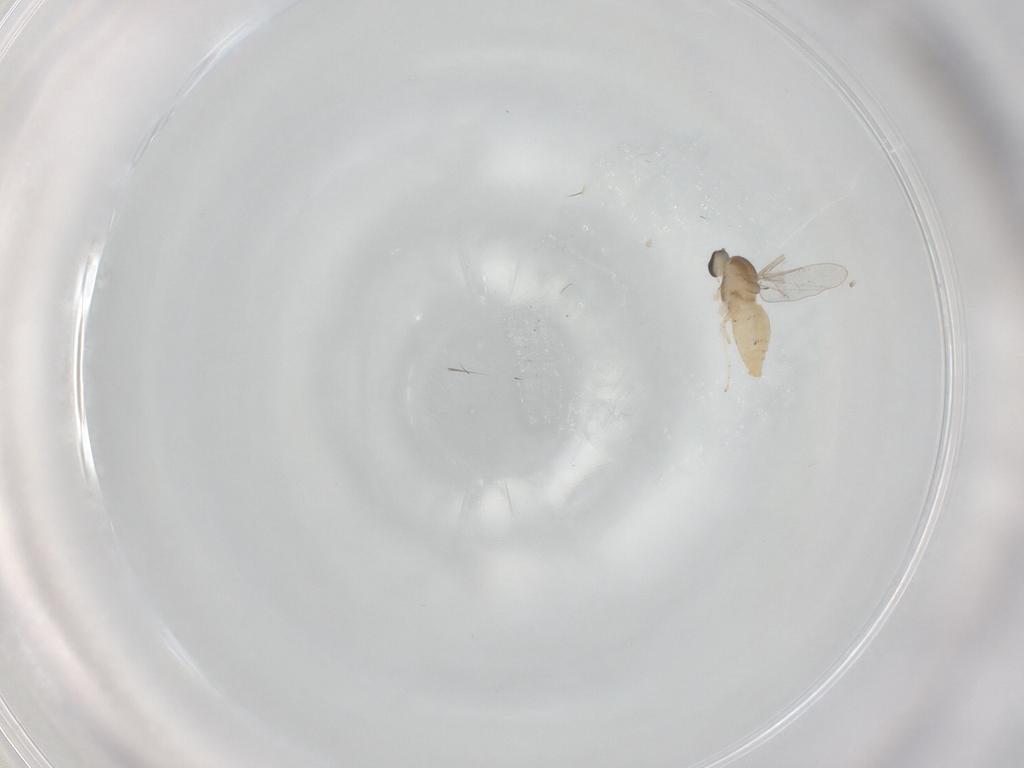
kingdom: Animalia
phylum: Arthropoda
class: Insecta
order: Diptera
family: Cecidomyiidae
